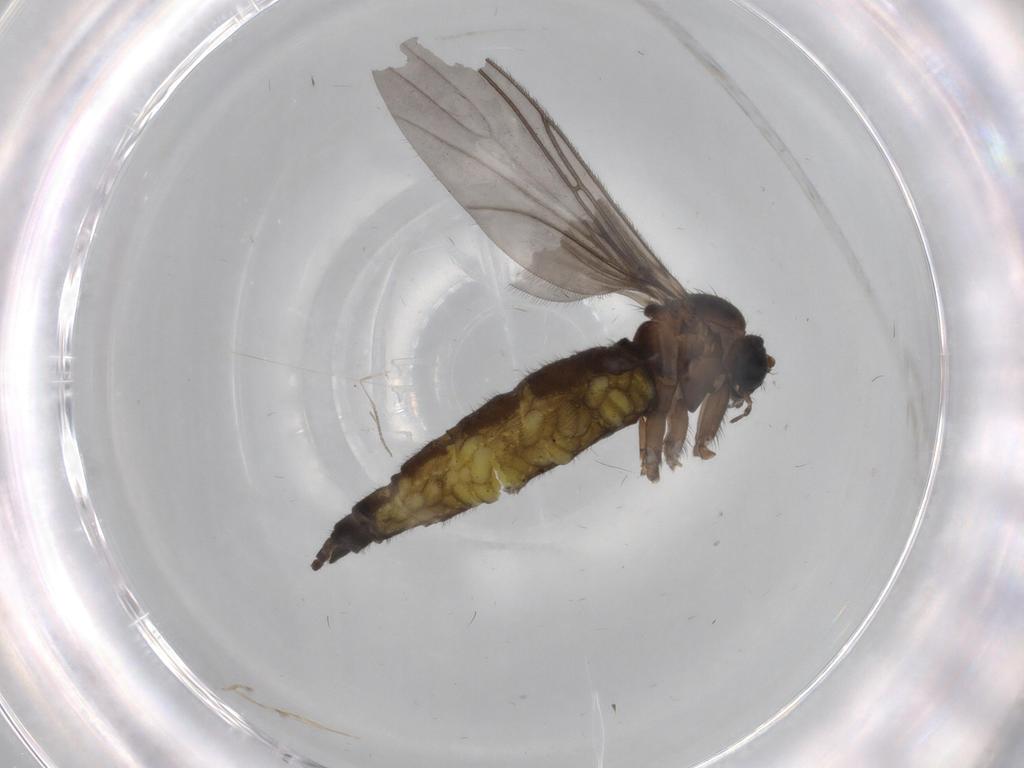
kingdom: Animalia
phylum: Arthropoda
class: Insecta
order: Diptera
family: Sciaridae
